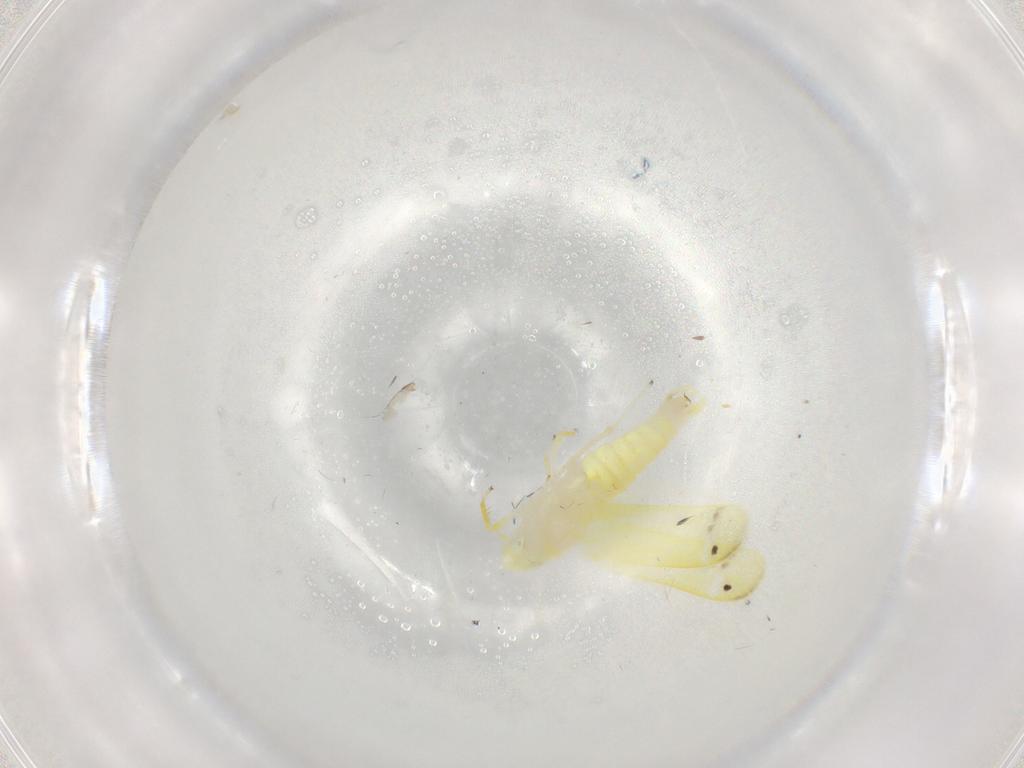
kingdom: Animalia
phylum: Arthropoda
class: Insecta
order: Hemiptera
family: Cicadellidae
